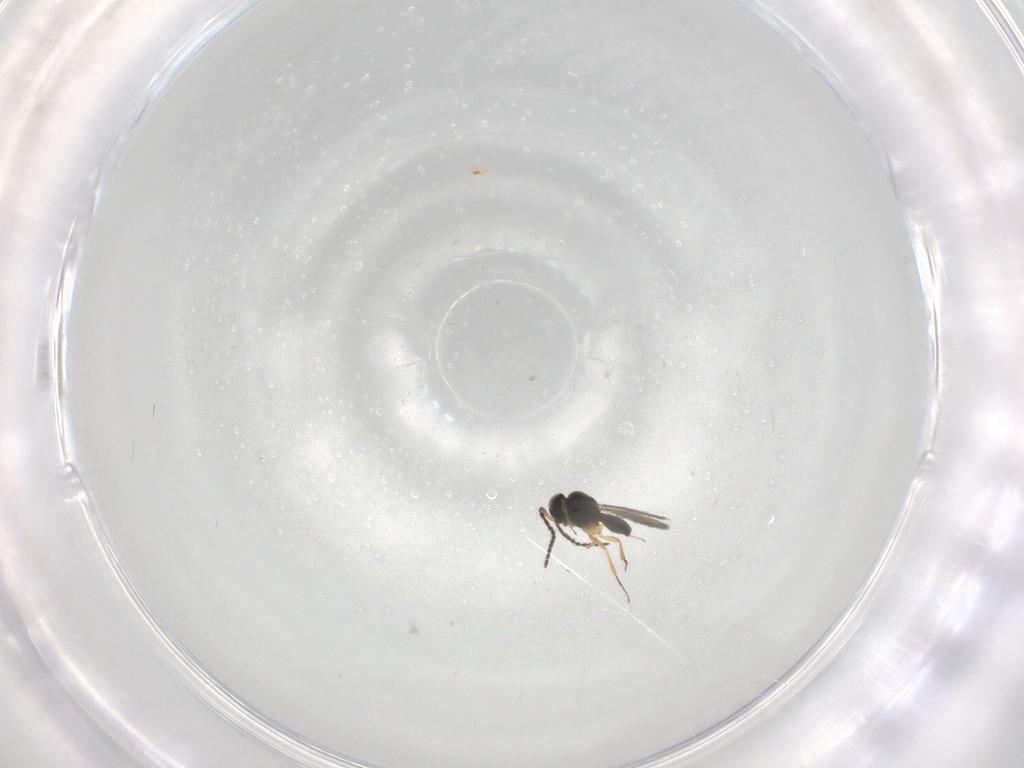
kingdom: Animalia
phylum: Arthropoda
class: Insecta
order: Hymenoptera
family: Scelionidae
